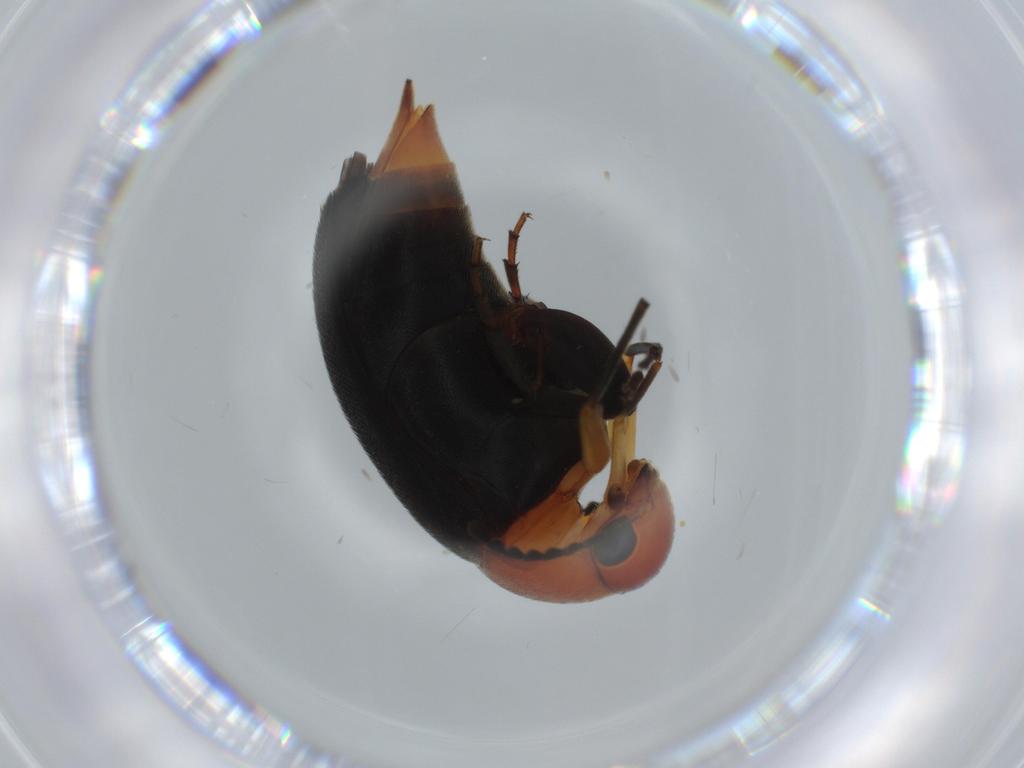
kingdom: Animalia
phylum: Arthropoda
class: Insecta
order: Coleoptera
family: Mordellidae
